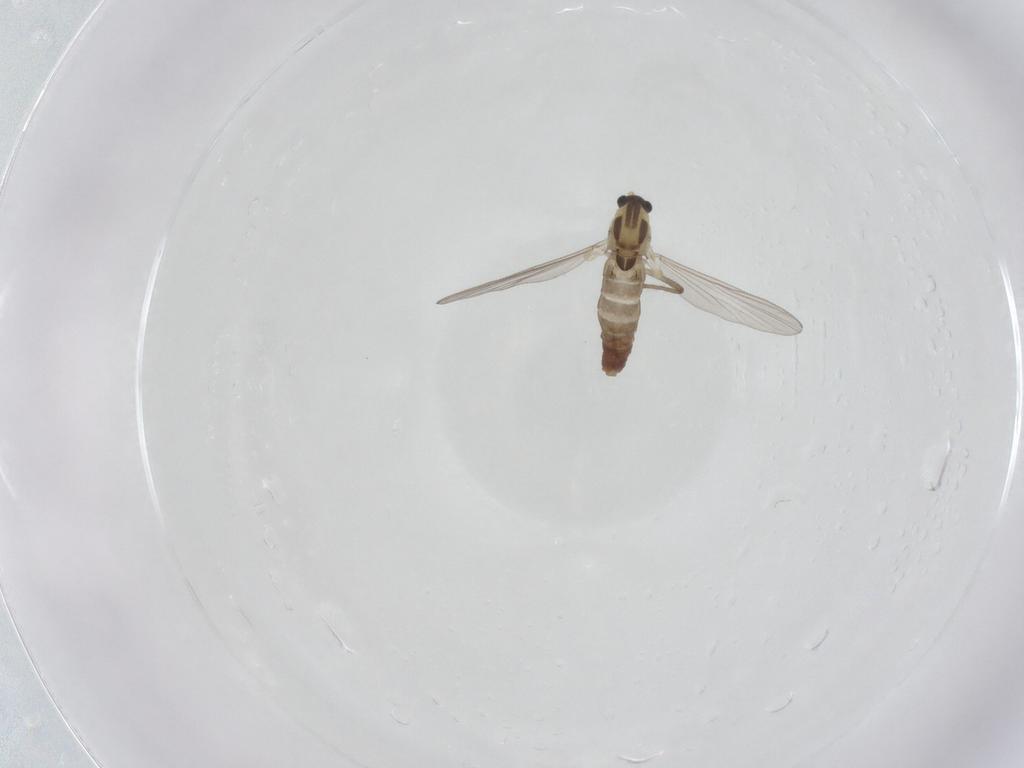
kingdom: Animalia
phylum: Arthropoda
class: Insecta
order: Diptera
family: Chironomidae
